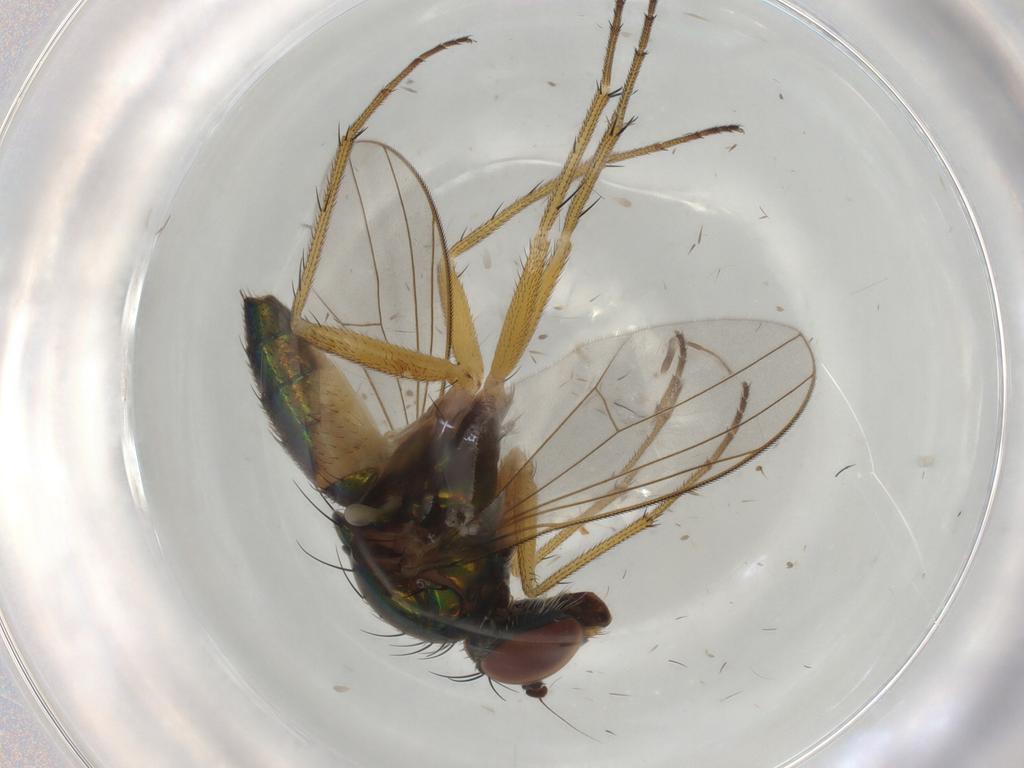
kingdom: Animalia
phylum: Arthropoda
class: Insecta
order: Diptera
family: Dolichopodidae
